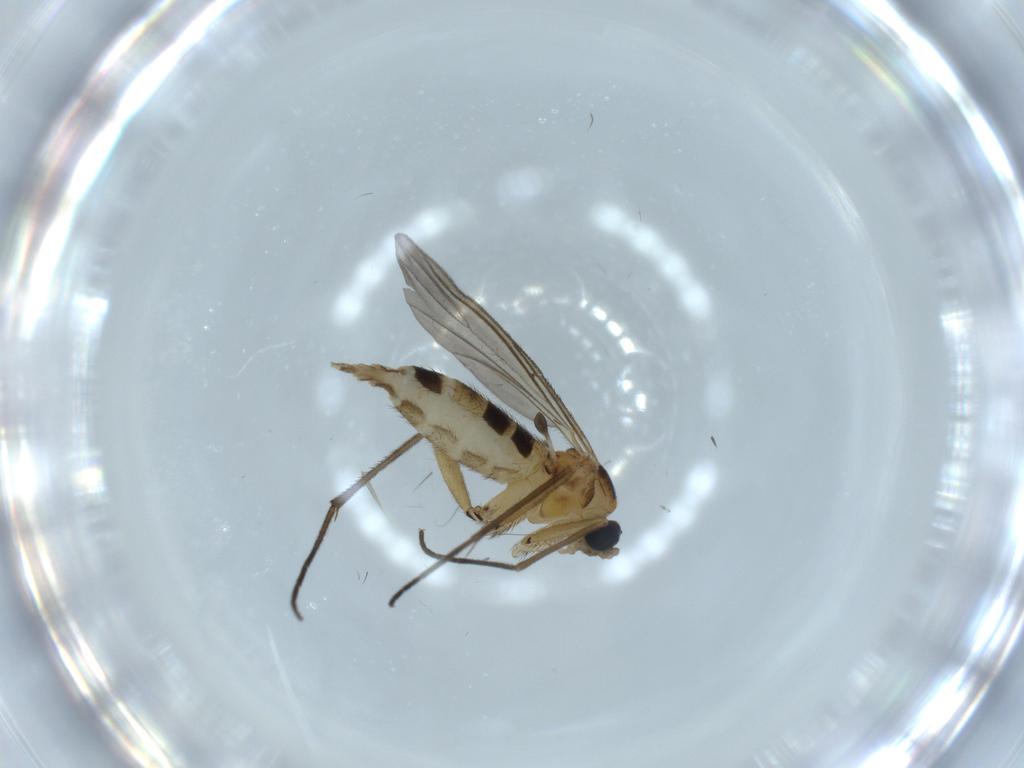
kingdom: Animalia
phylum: Arthropoda
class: Insecta
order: Diptera
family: Sciaridae
